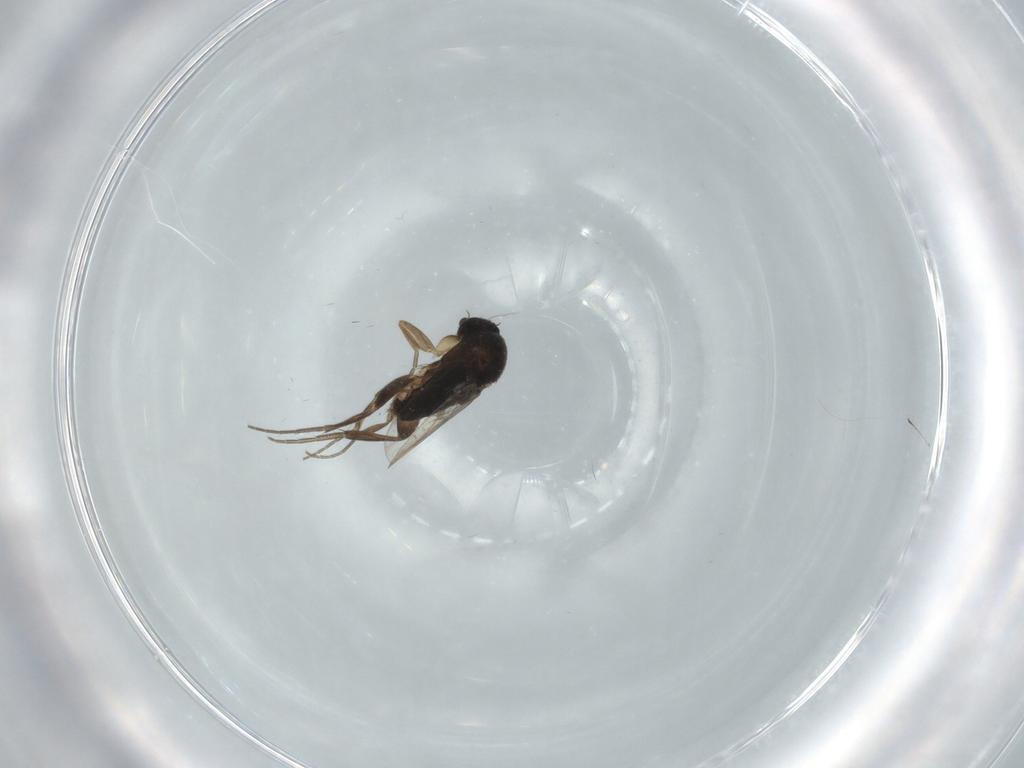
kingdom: Animalia
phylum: Arthropoda
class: Insecta
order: Diptera
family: Phoridae
